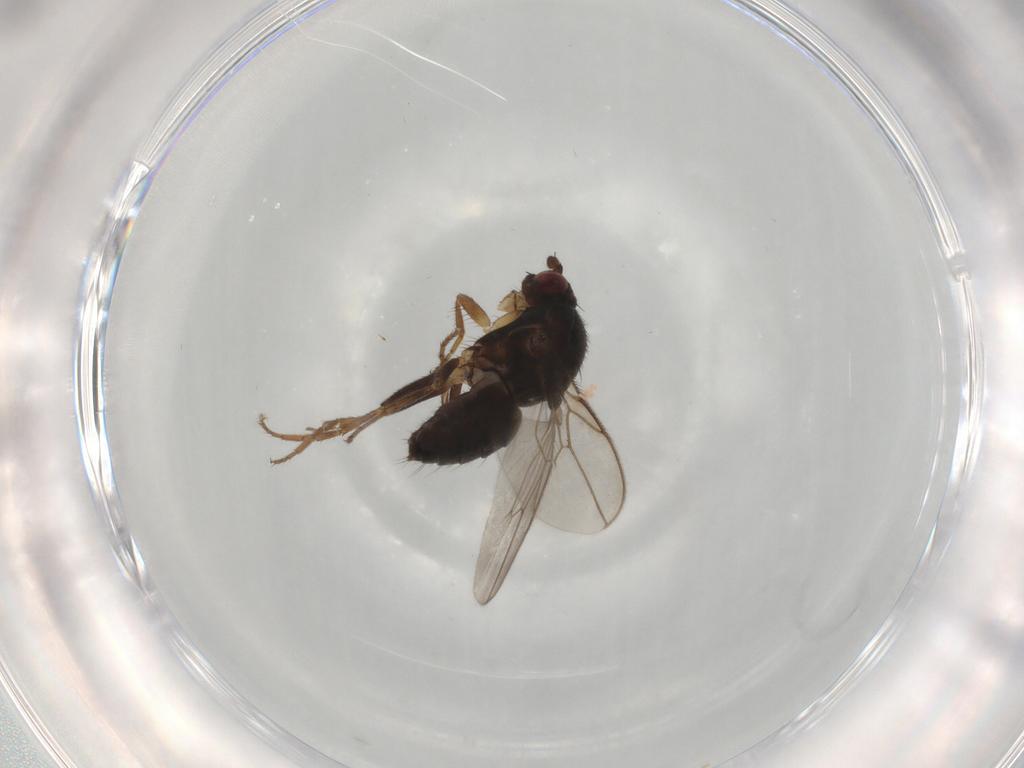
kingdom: Animalia
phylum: Arthropoda
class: Insecta
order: Diptera
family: Sphaeroceridae
